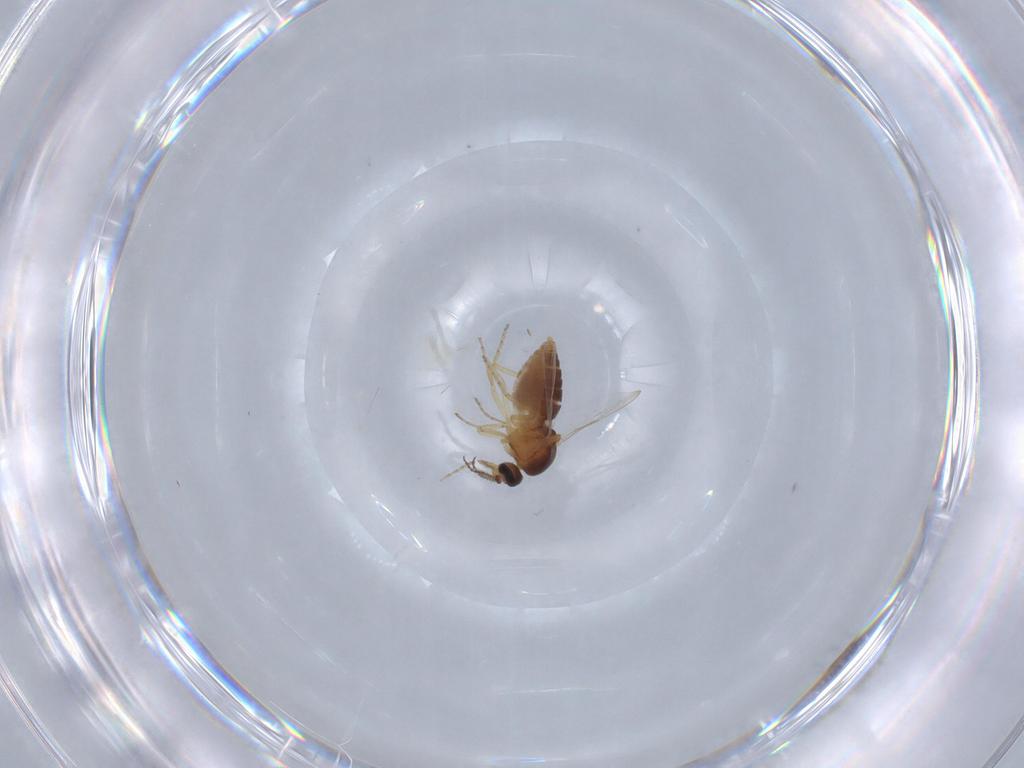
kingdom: Animalia
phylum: Arthropoda
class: Insecta
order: Diptera
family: Ceratopogonidae
